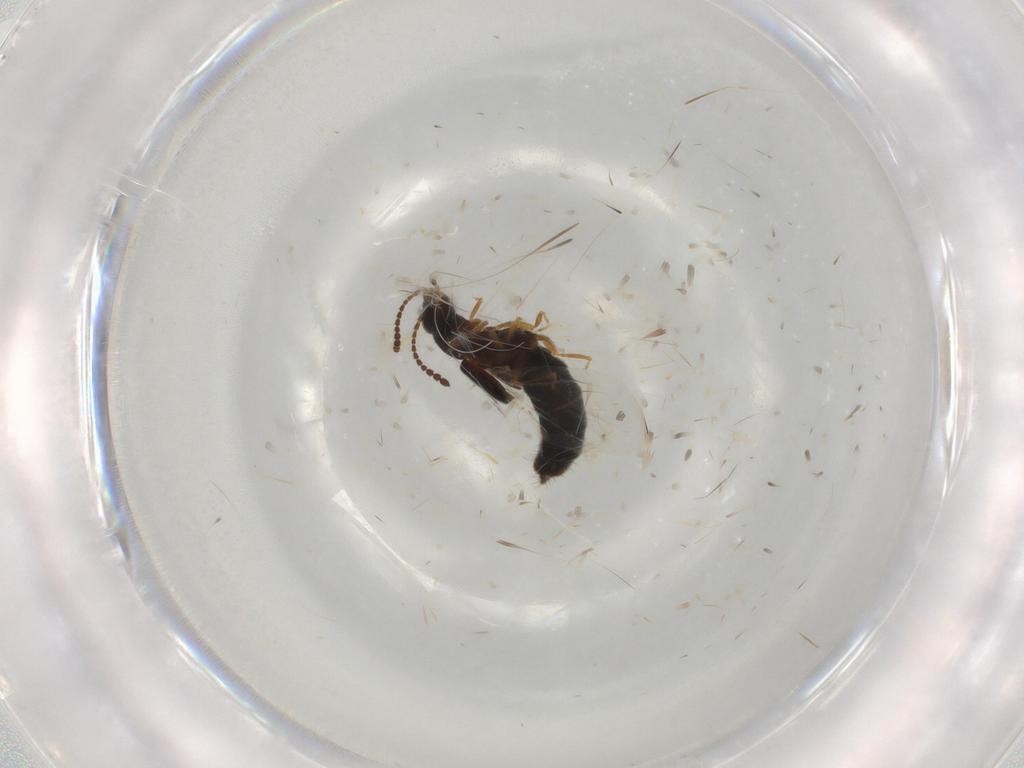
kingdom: Animalia
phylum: Arthropoda
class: Insecta
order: Coleoptera
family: Staphylinidae
